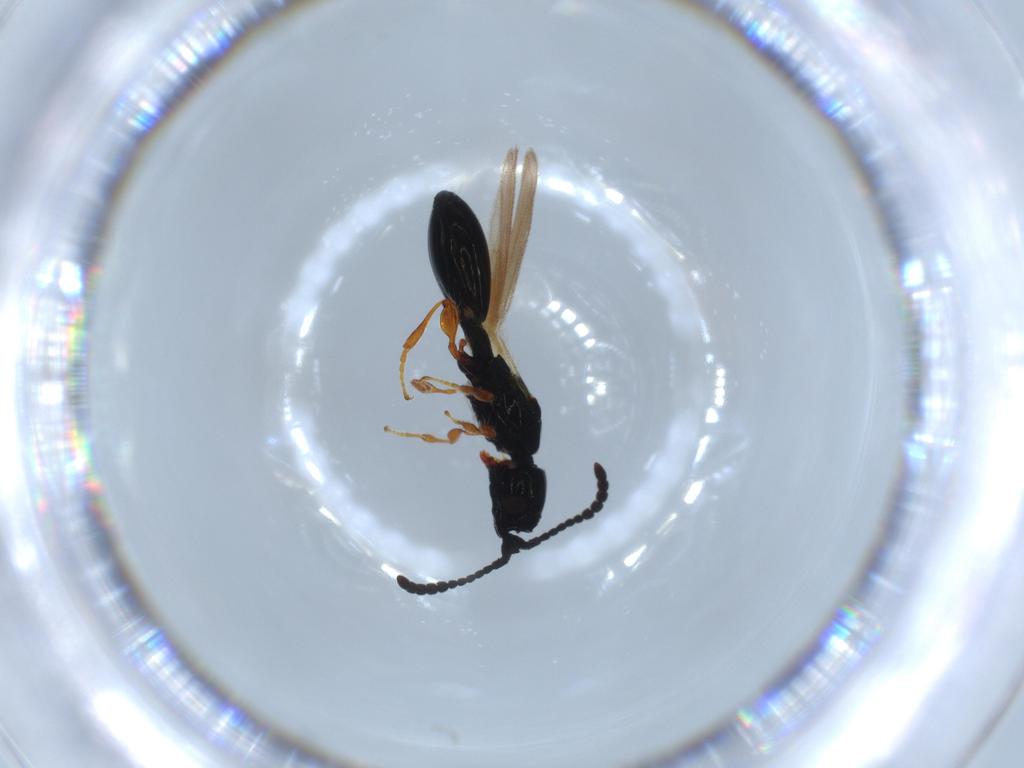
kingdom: Animalia
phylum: Arthropoda
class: Insecta
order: Hymenoptera
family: Diapriidae
